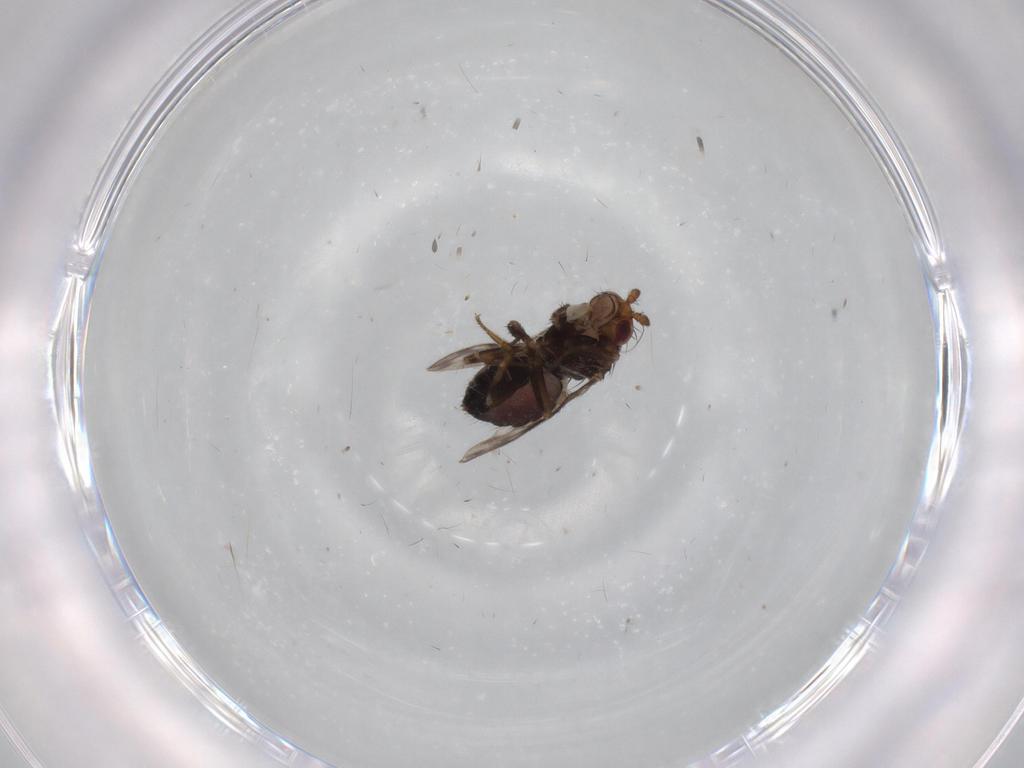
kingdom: Animalia
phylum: Arthropoda
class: Insecta
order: Diptera
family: Sphaeroceridae
